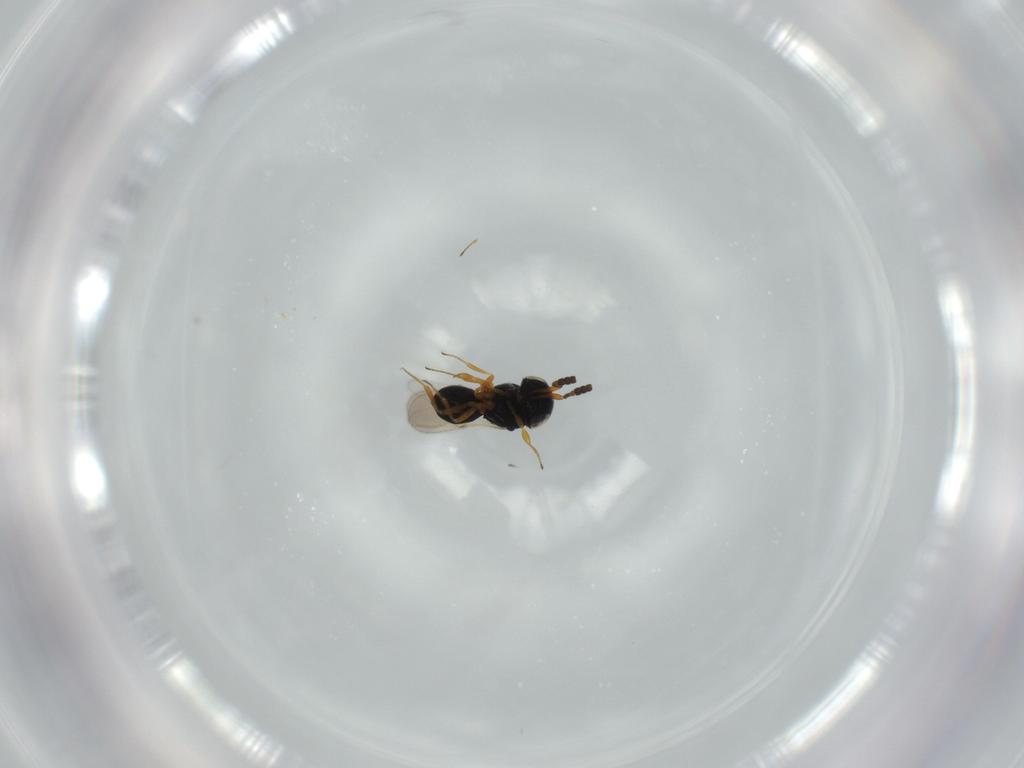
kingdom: Animalia
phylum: Arthropoda
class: Insecta
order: Hymenoptera
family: Scelionidae
